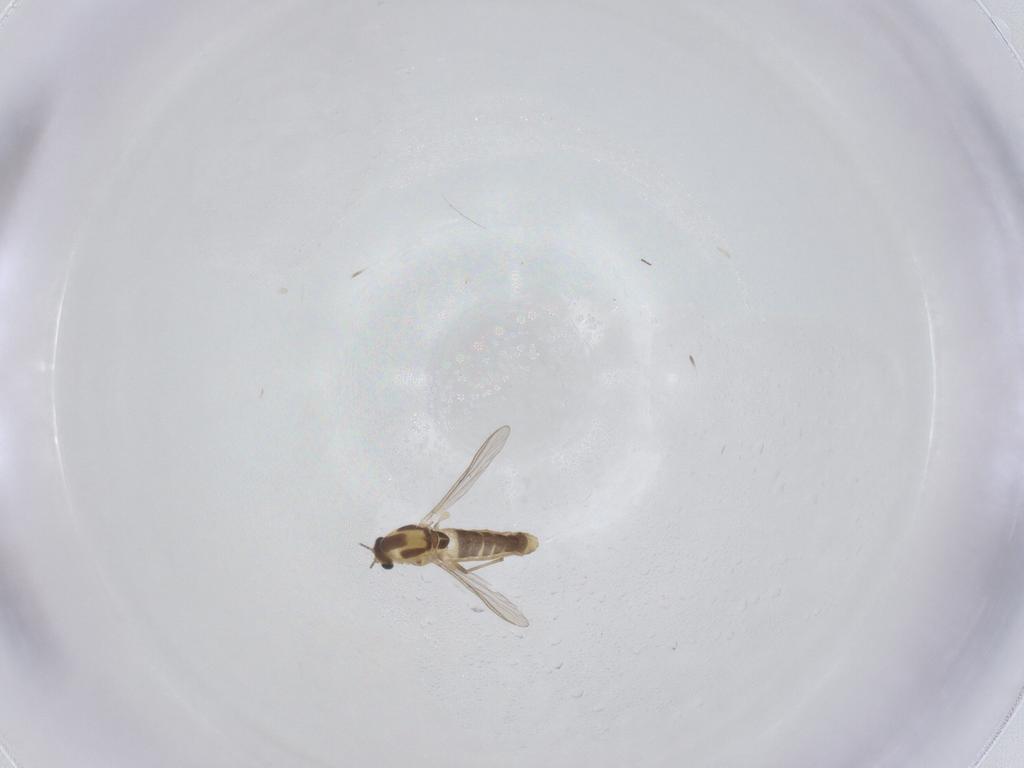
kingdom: Animalia
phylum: Arthropoda
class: Insecta
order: Diptera
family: Chironomidae
